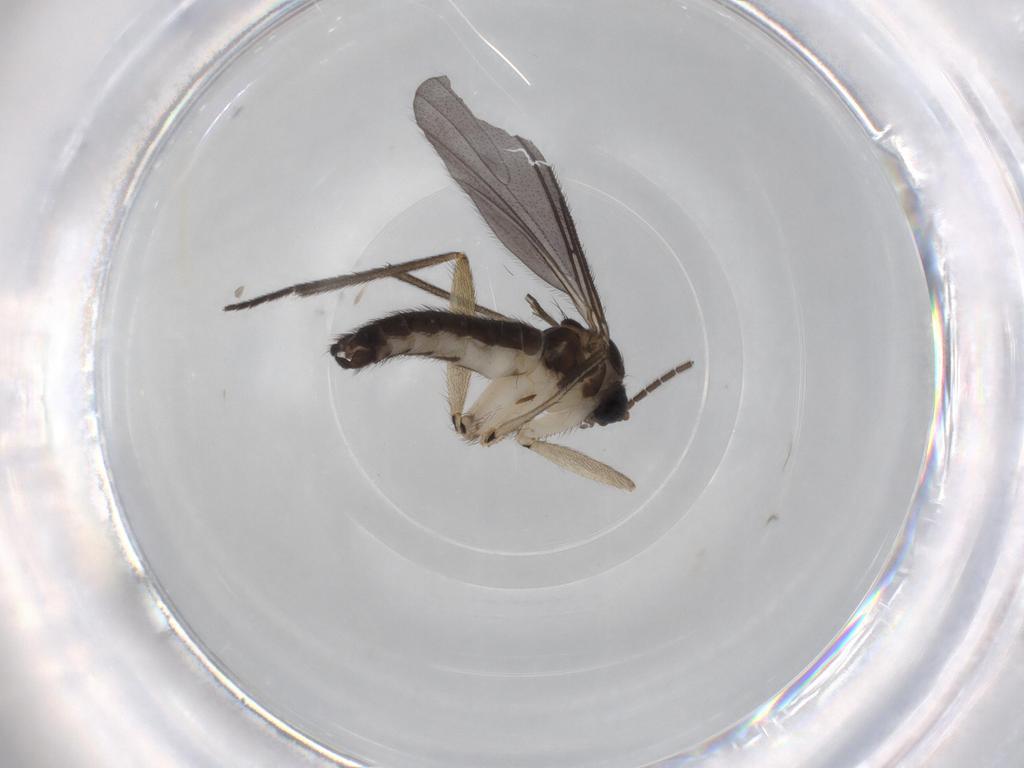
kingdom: Animalia
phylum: Arthropoda
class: Insecta
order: Diptera
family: Sciaridae
